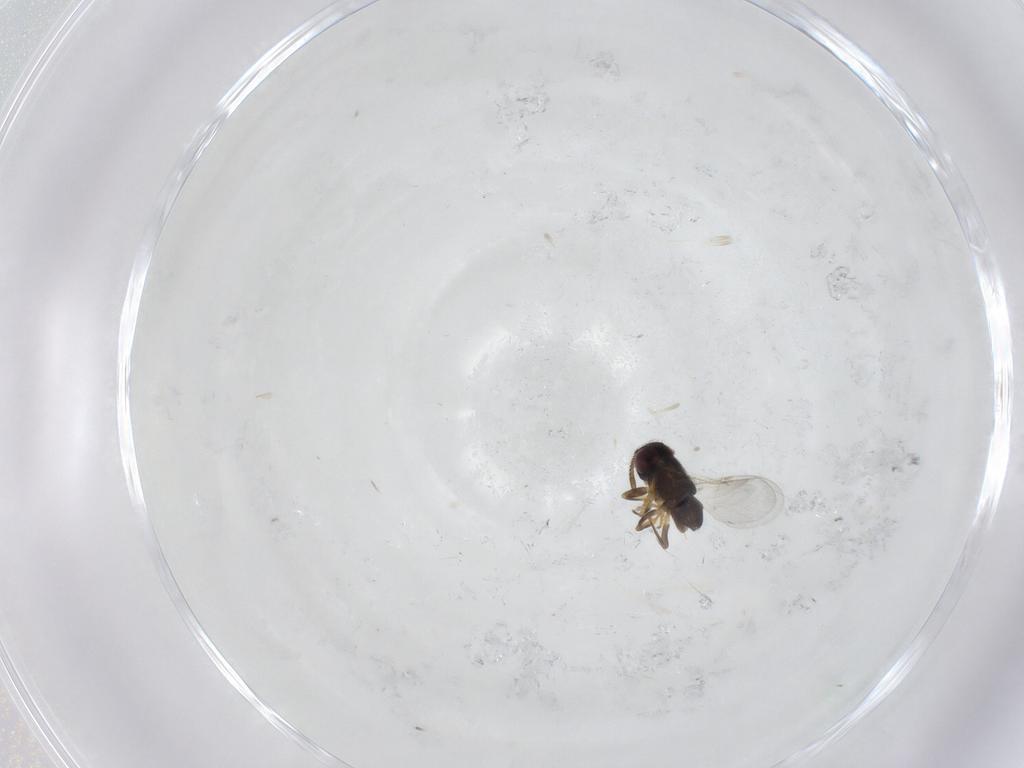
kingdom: Animalia
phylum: Arthropoda
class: Insecta
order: Hymenoptera
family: Encyrtidae
